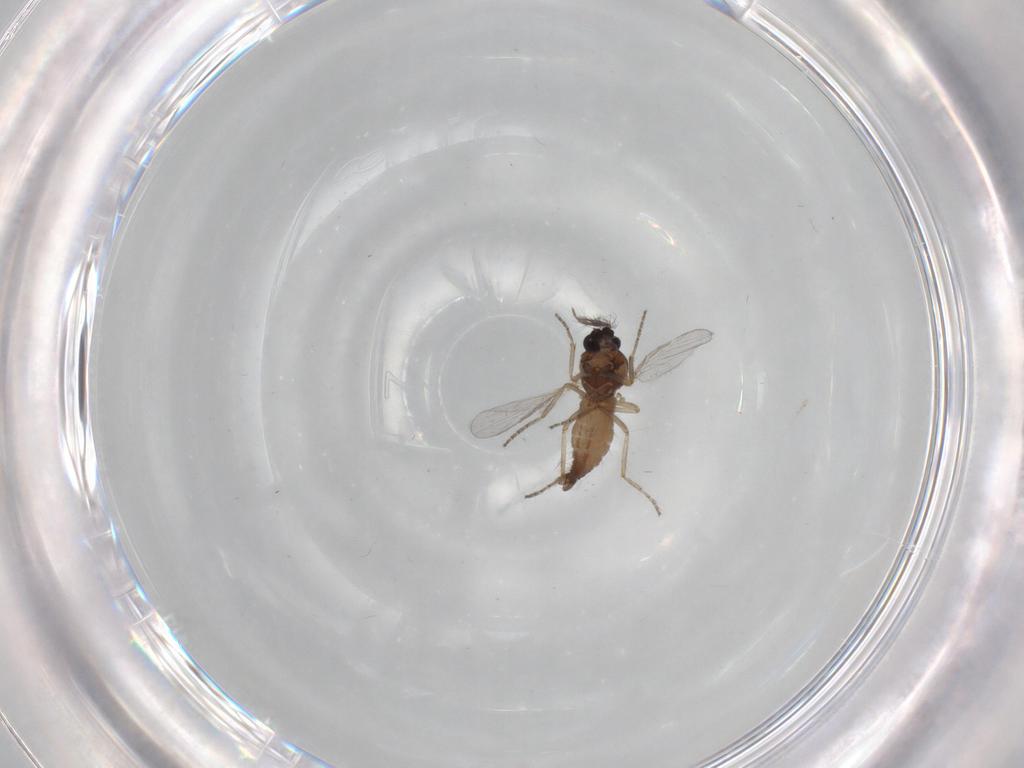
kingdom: Animalia
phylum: Arthropoda
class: Insecta
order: Diptera
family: Chironomidae
